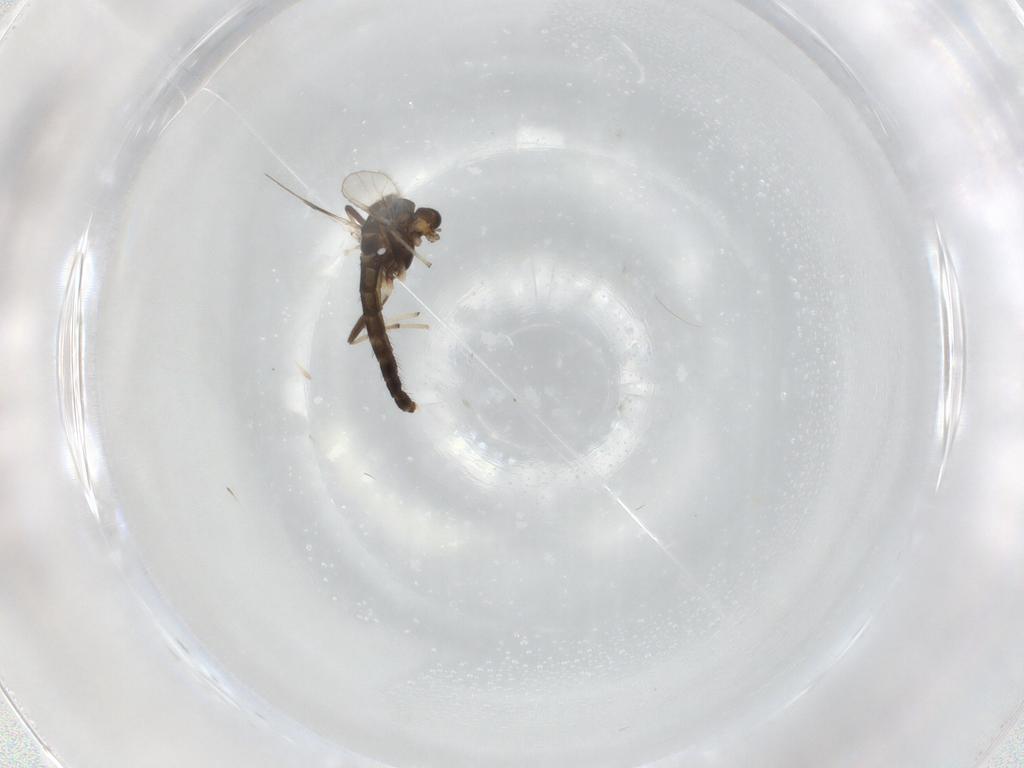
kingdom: Animalia
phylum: Arthropoda
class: Insecta
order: Diptera
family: Chironomidae
